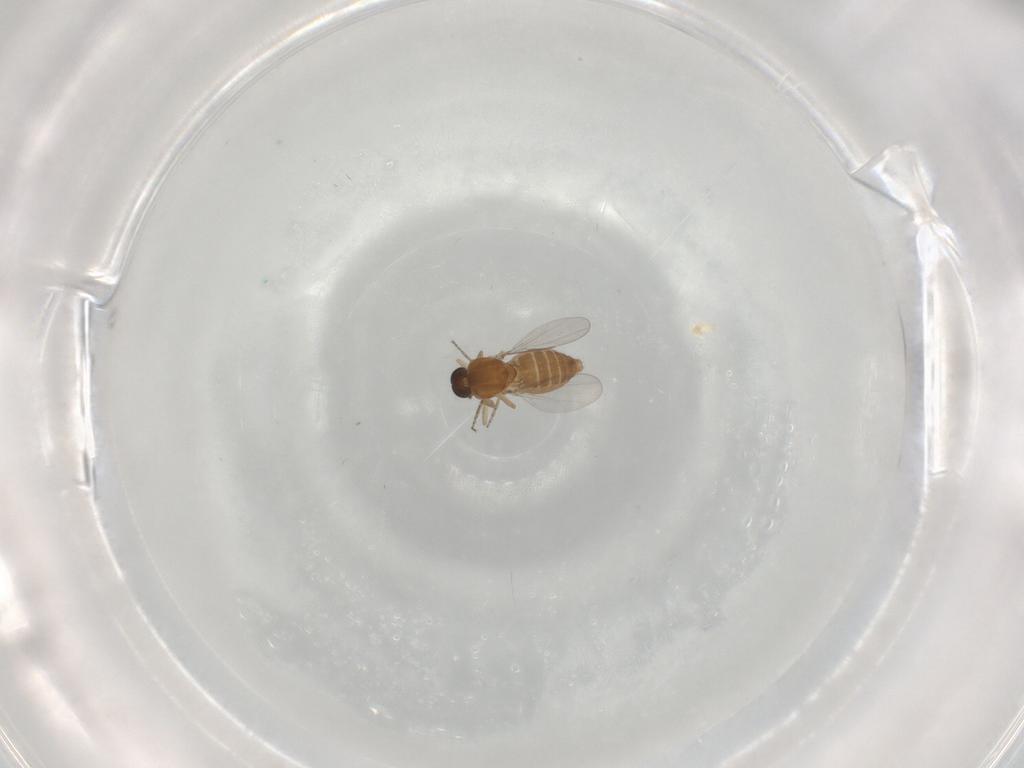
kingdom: Animalia
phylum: Arthropoda
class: Insecta
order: Diptera
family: Ceratopogonidae
